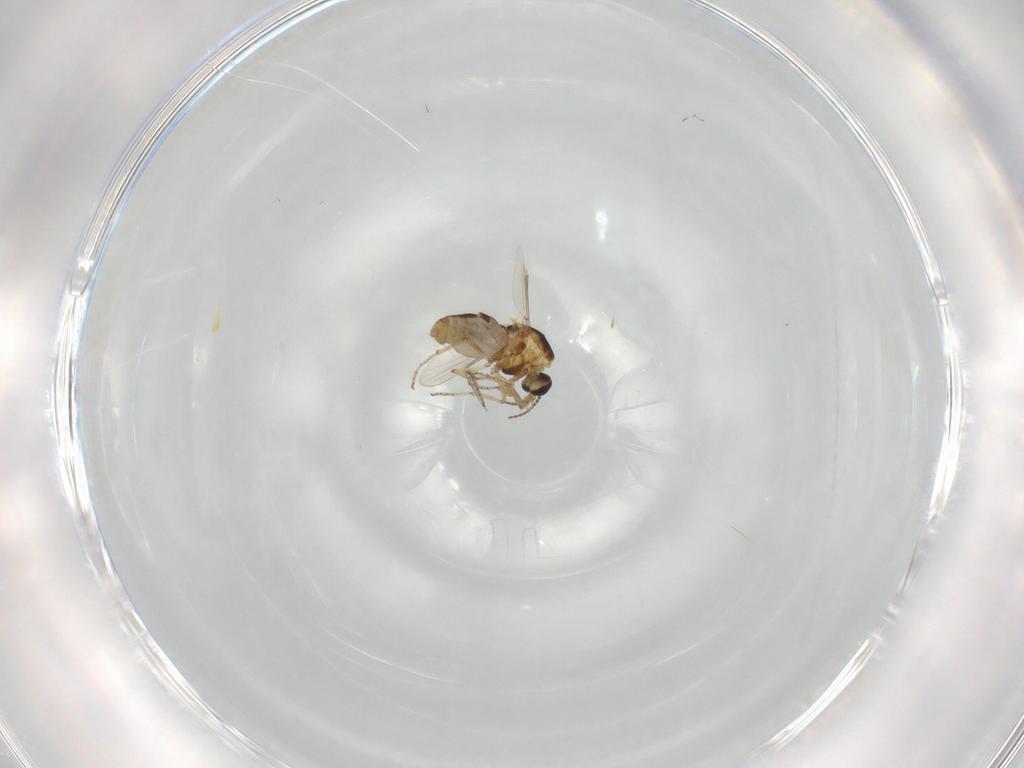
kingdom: Animalia
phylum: Arthropoda
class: Insecta
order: Diptera
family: Ceratopogonidae
